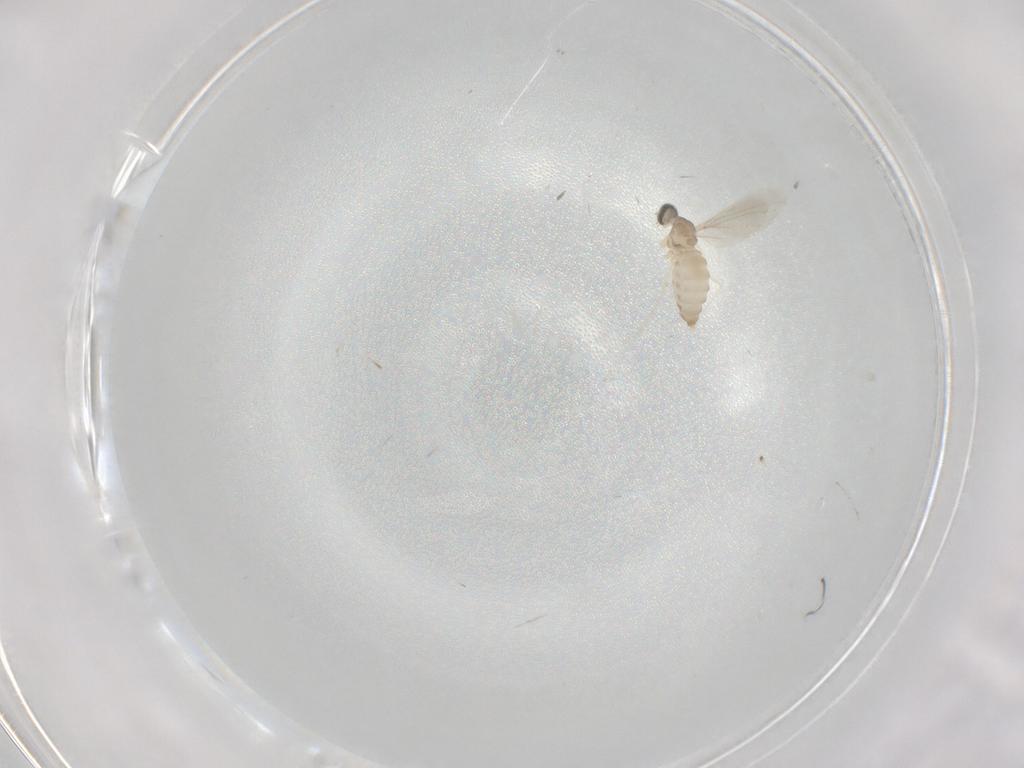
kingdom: Animalia
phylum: Arthropoda
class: Insecta
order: Diptera
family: Cecidomyiidae
